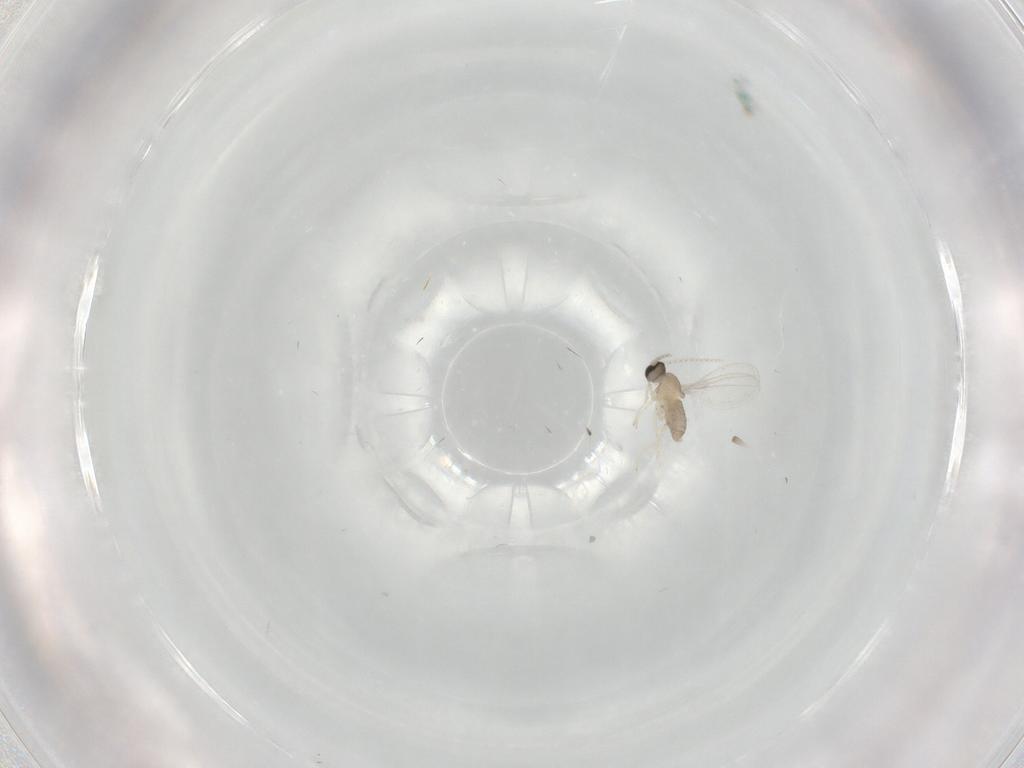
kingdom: Animalia
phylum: Arthropoda
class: Insecta
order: Diptera
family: Cecidomyiidae
